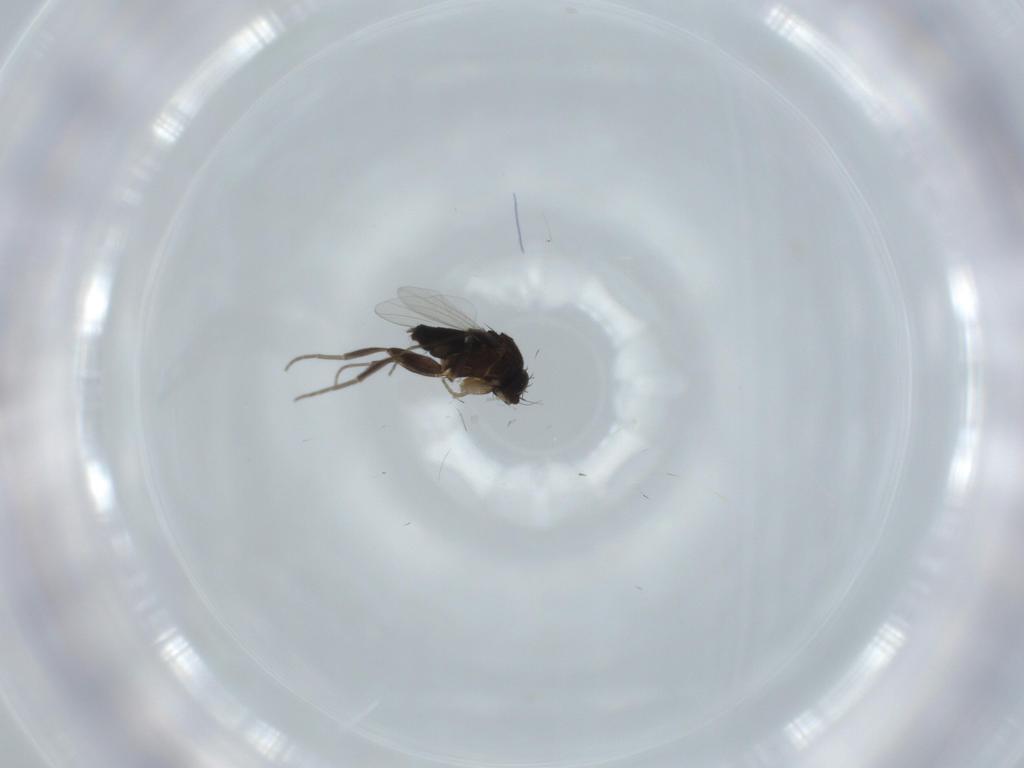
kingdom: Animalia
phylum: Arthropoda
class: Insecta
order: Diptera
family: Phoridae
